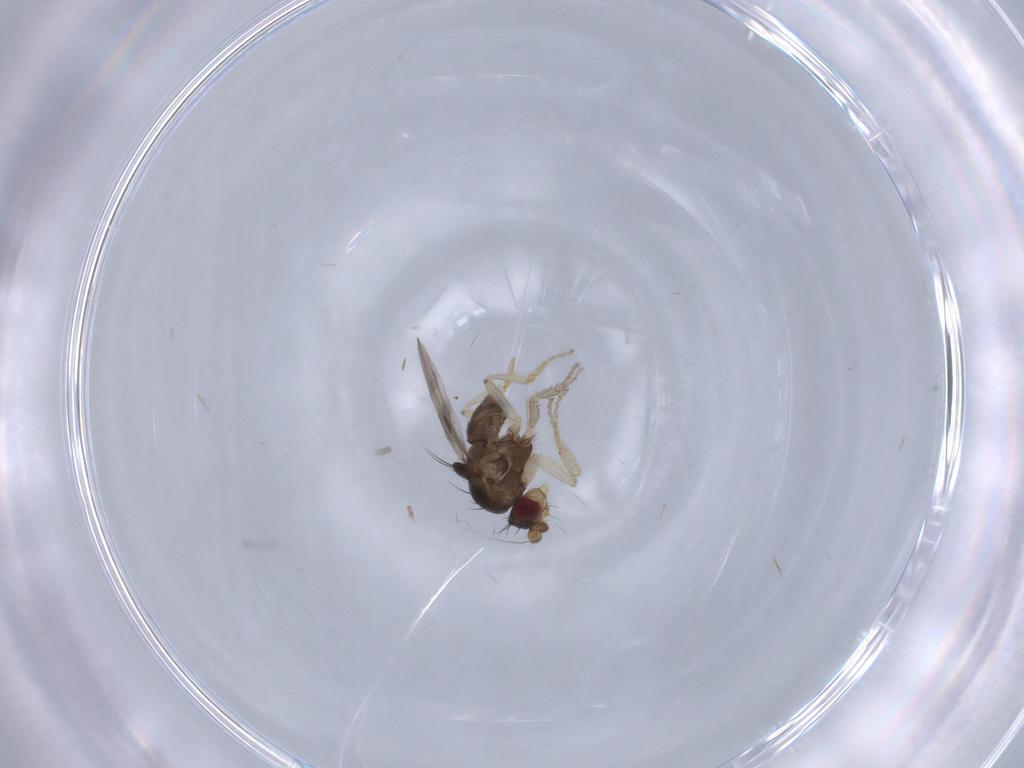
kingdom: Animalia
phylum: Arthropoda
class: Insecta
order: Diptera
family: Sphaeroceridae
